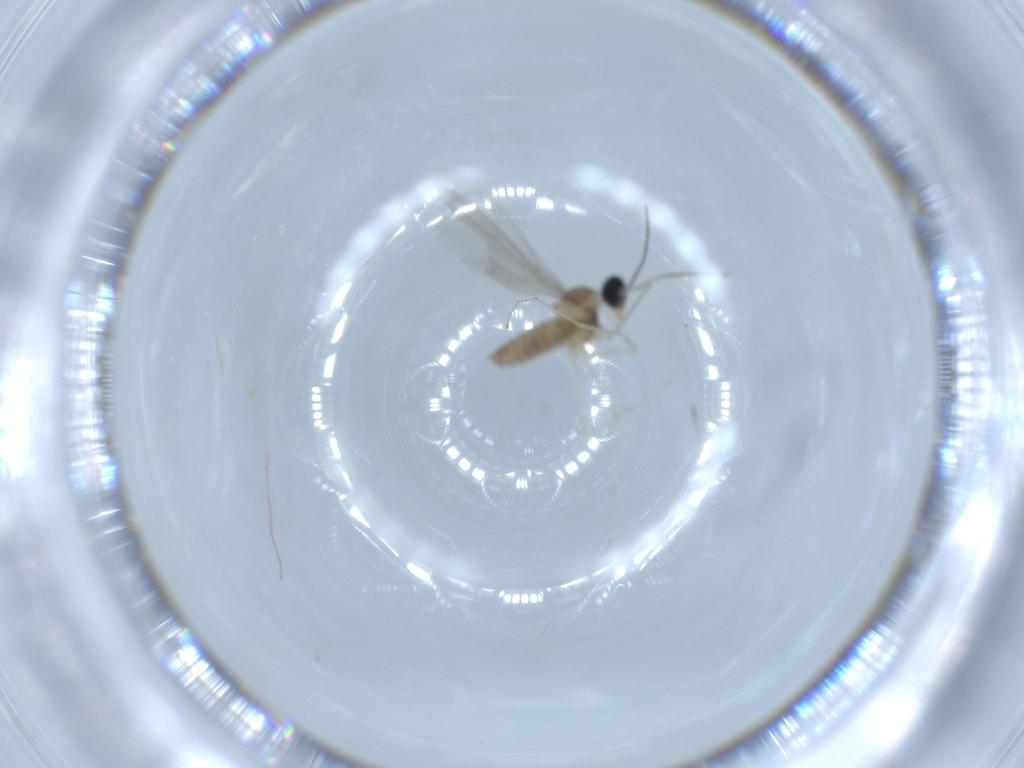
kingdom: Animalia
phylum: Arthropoda
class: Insecta
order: Diptera
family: Cecidomyiidae
